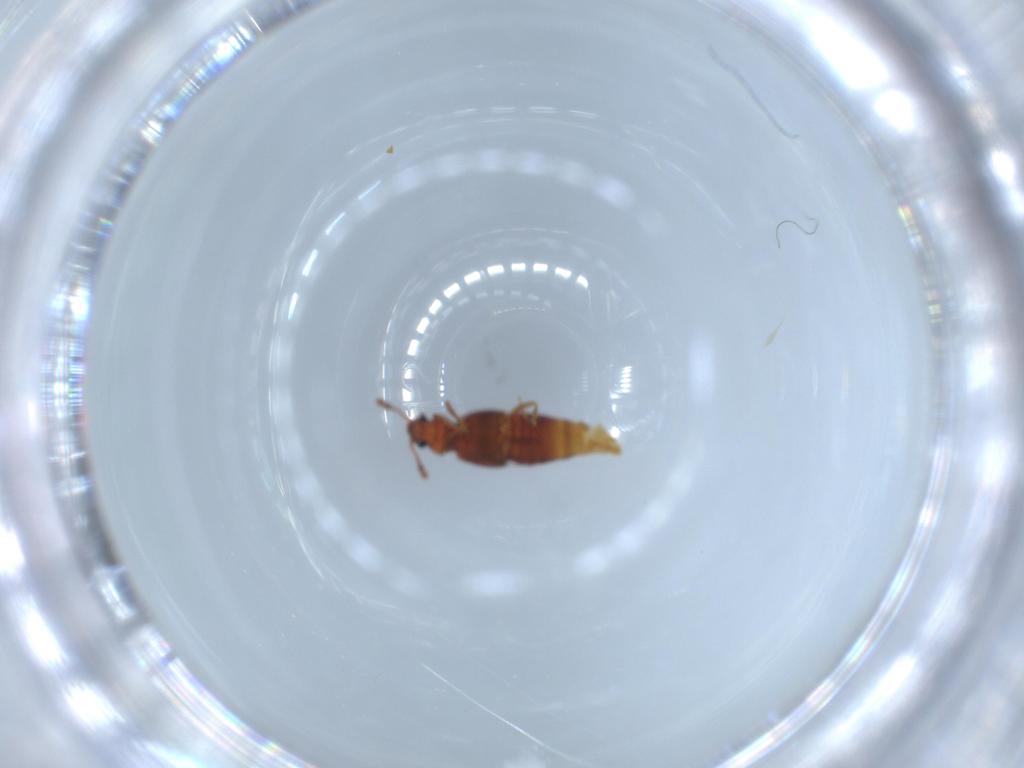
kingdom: Animalia
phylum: Arthropoda
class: Insecta
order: Coleoptera
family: Staphylinidae
